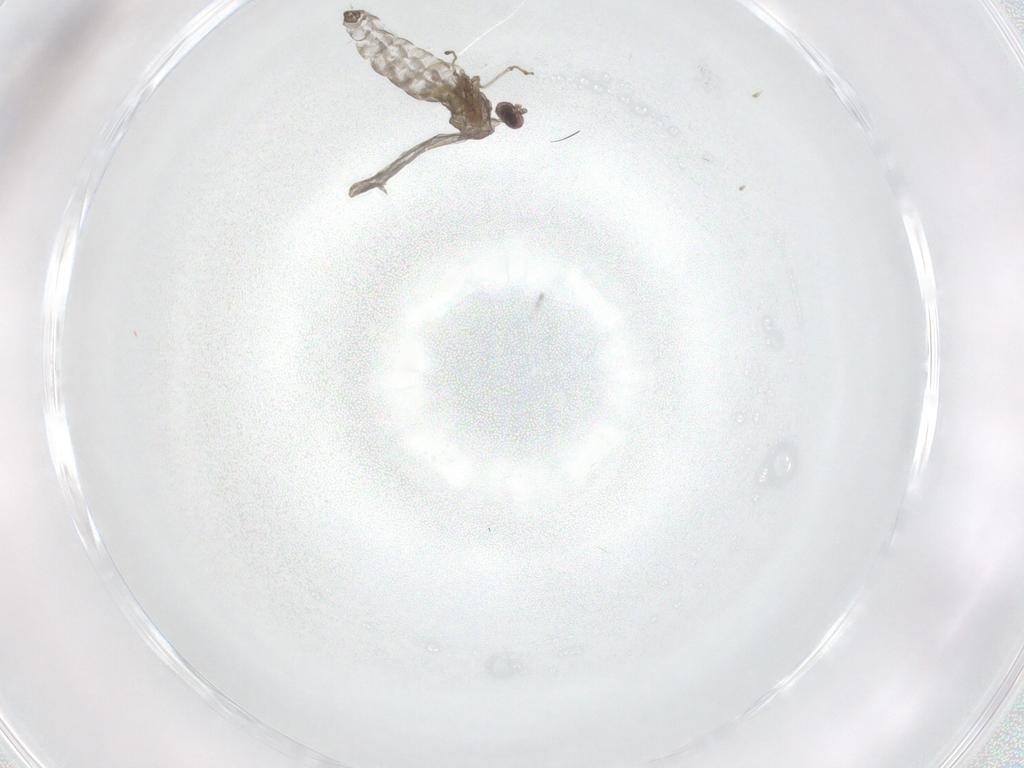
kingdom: Animalia
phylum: Arthropoda
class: Insecta
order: Diptera
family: Cecidomyiidae
